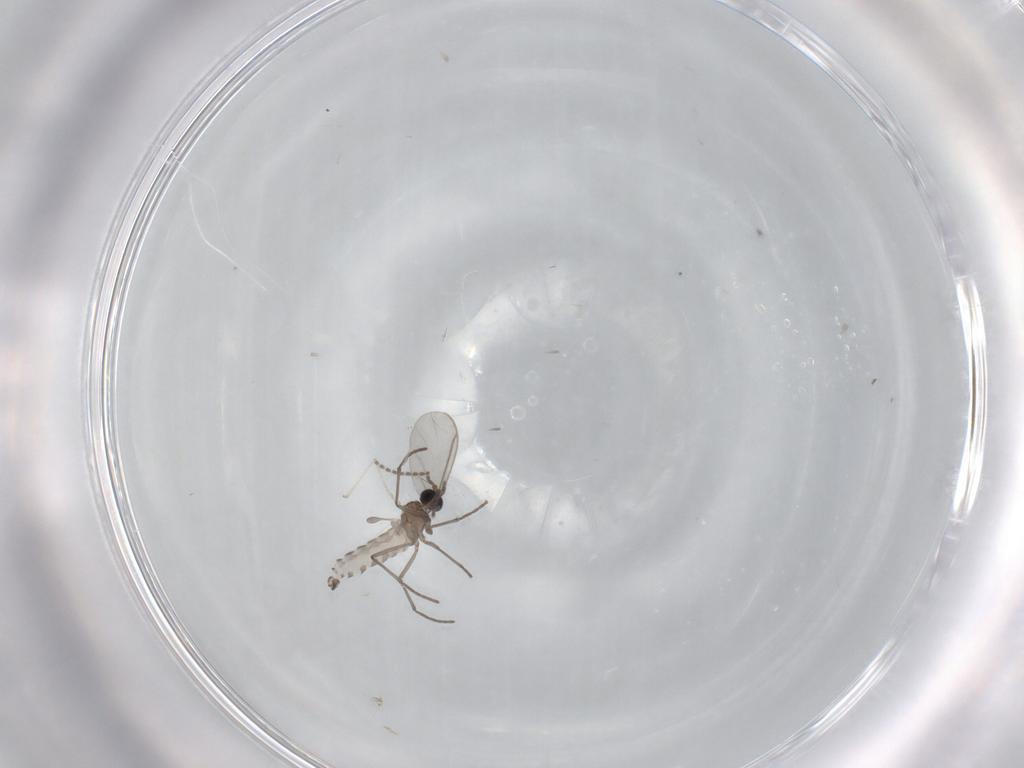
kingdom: Animalia
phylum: Arthropoda
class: Insecta
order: Diptera
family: Sciaridae
